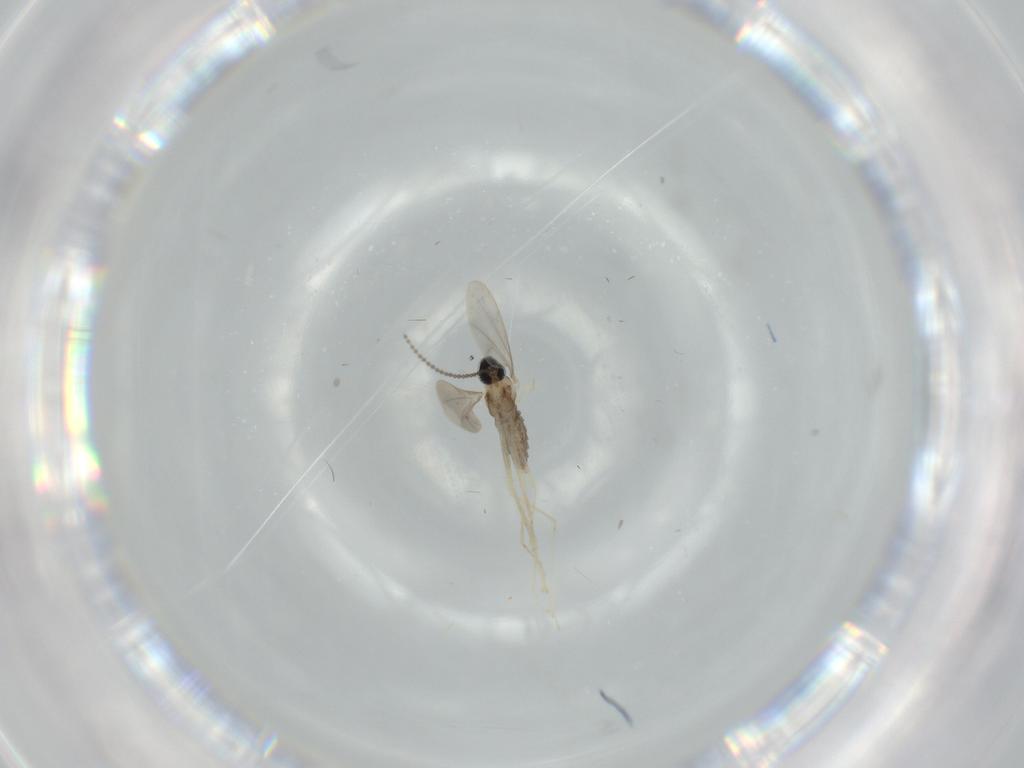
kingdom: Animalia
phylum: Arthropoda
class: Insecta
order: Diptera
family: Cecidomyiidae
